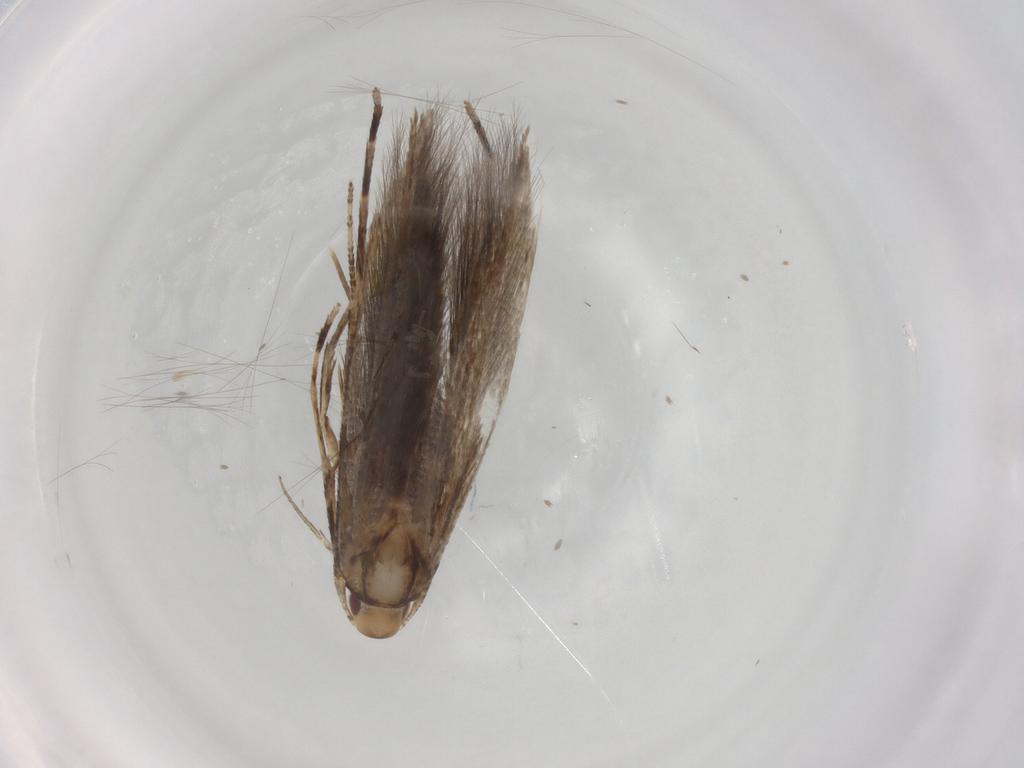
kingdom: Animalia
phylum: Arthropoda
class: Insecta
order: Lepidoptera
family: Cosmopterigidae
